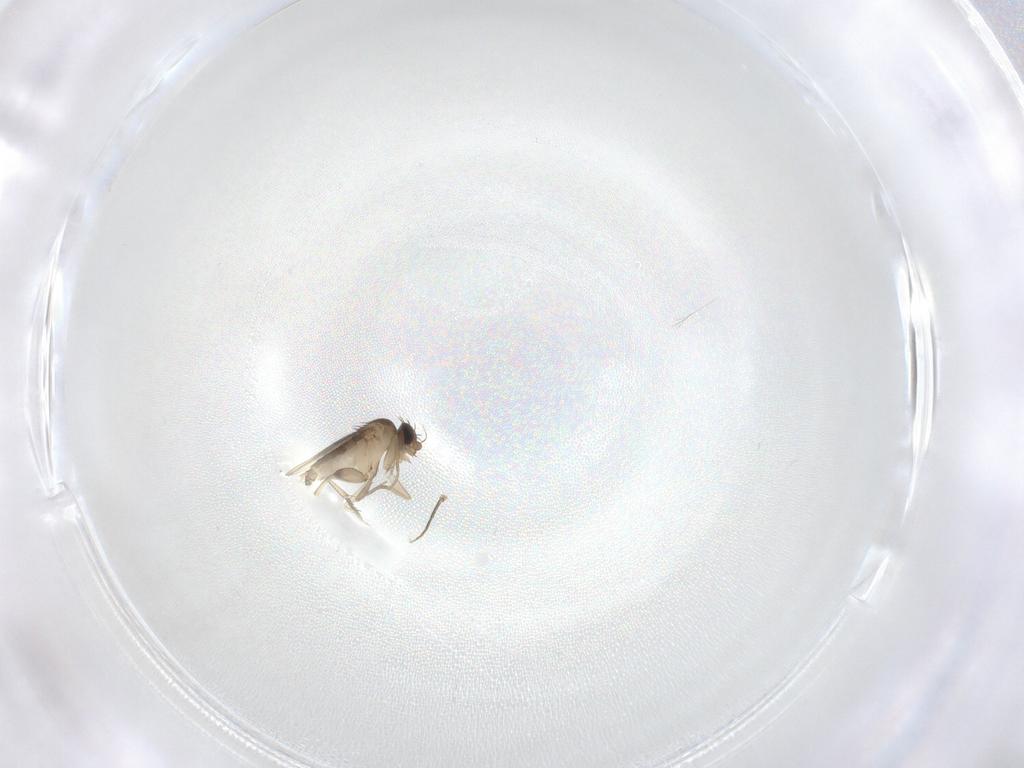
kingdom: Animalia
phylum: Arthropoda
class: Insecta
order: Diptera
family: Phoridae
